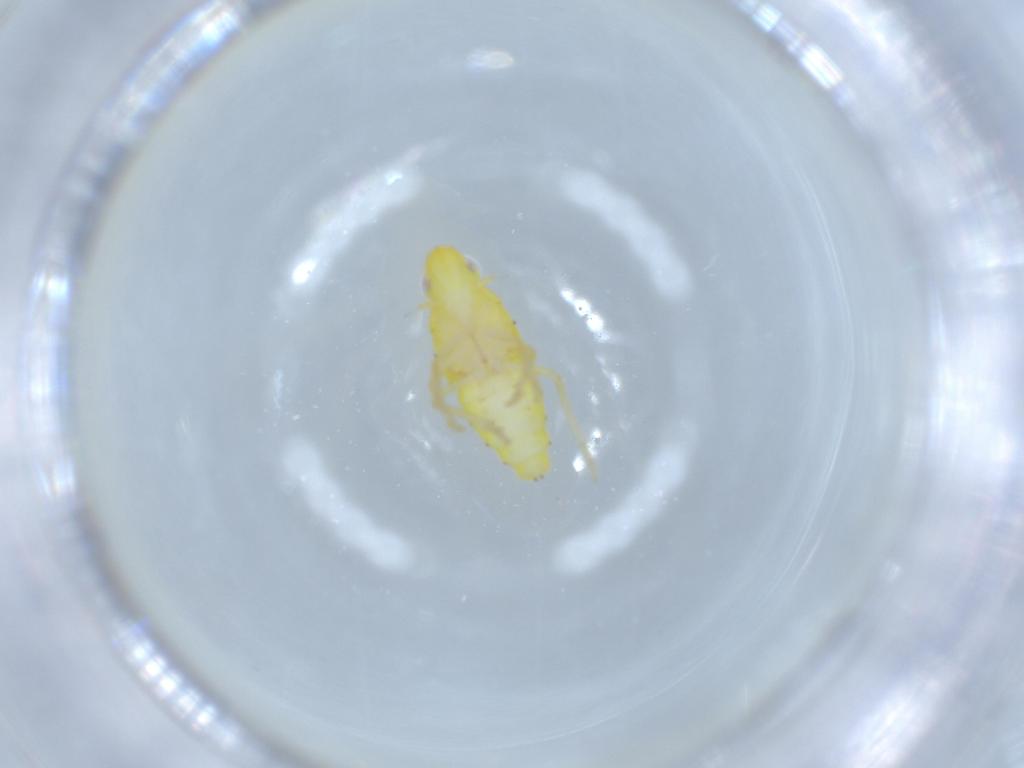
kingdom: Animalia
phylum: Arthropoda
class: Insecta
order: Hemiptera
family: Tropiduchidae
